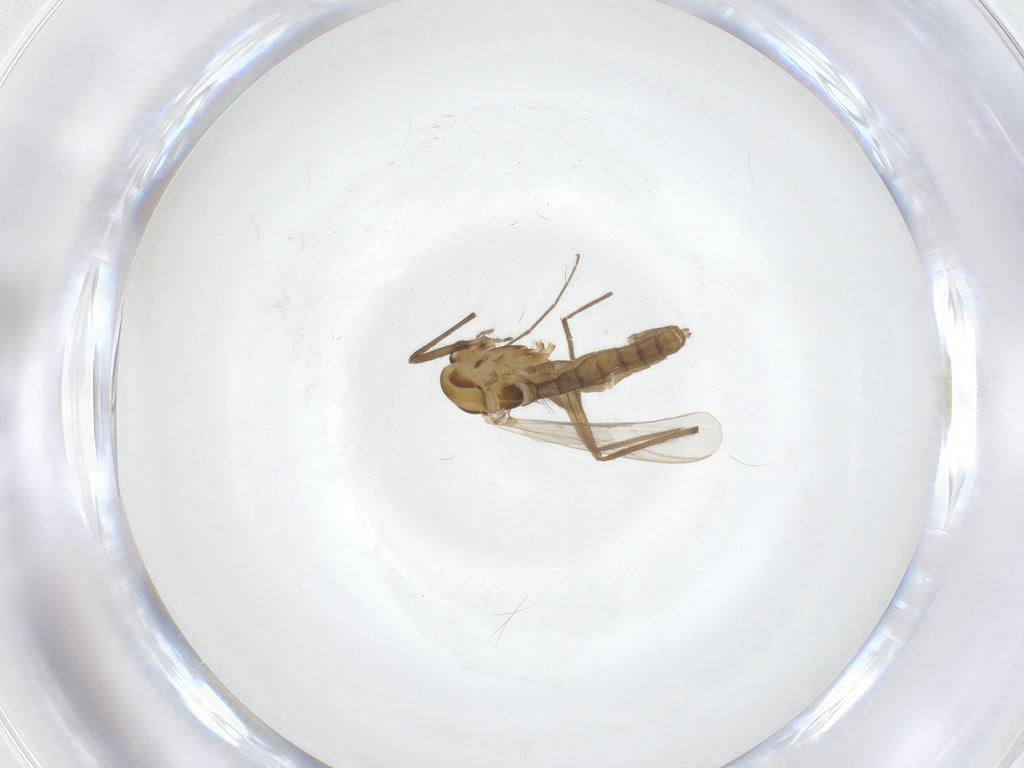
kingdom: Animalia
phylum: Arthropoda
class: Insecta
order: Diptera
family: Chironomidae
